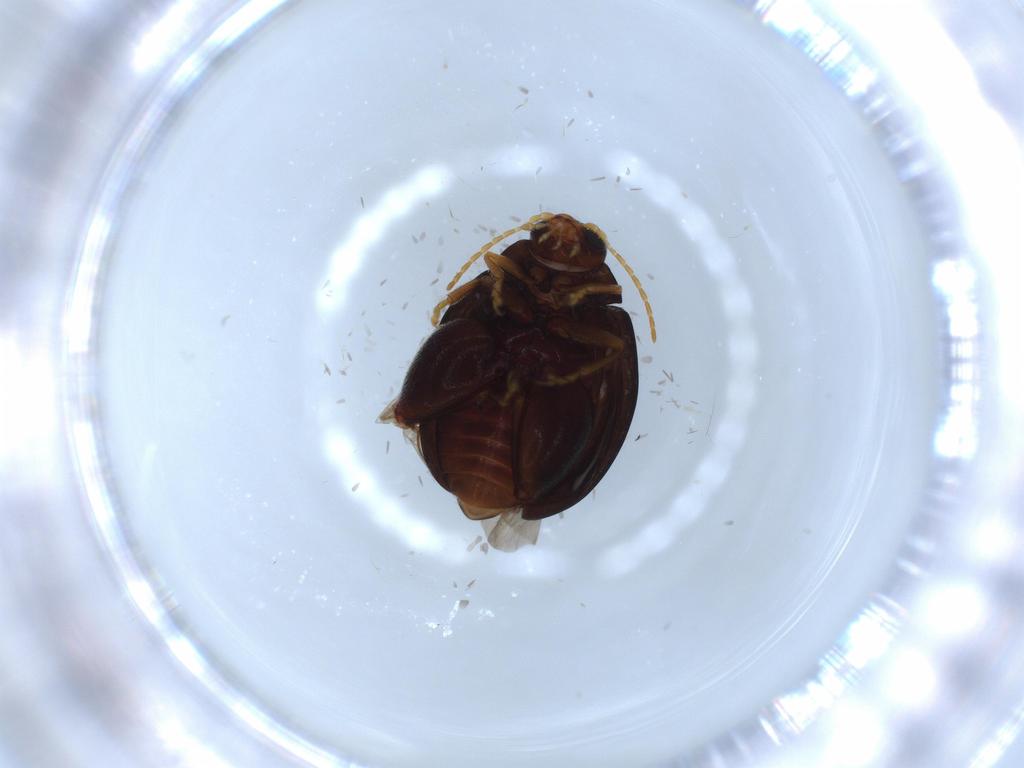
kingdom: Animalia
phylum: Arthropoda
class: Insecta
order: Coleoptera
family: Chrysomelidae
